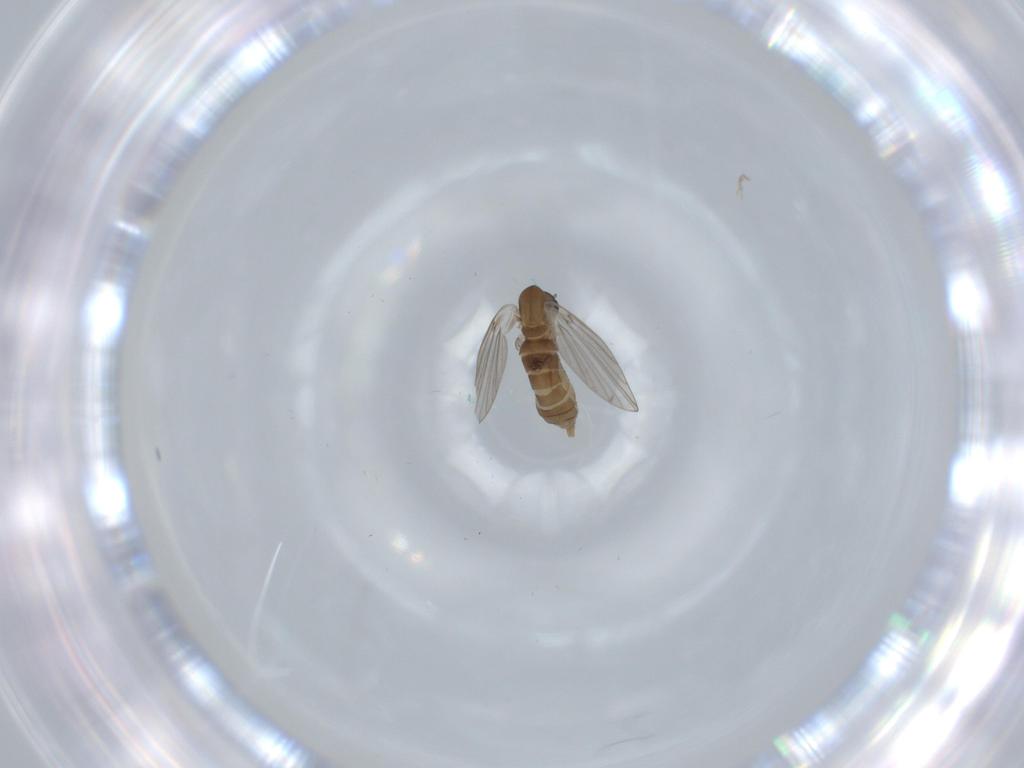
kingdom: Animalia
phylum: Arthropoda
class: Insecta
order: Diptera
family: Psychodidae
